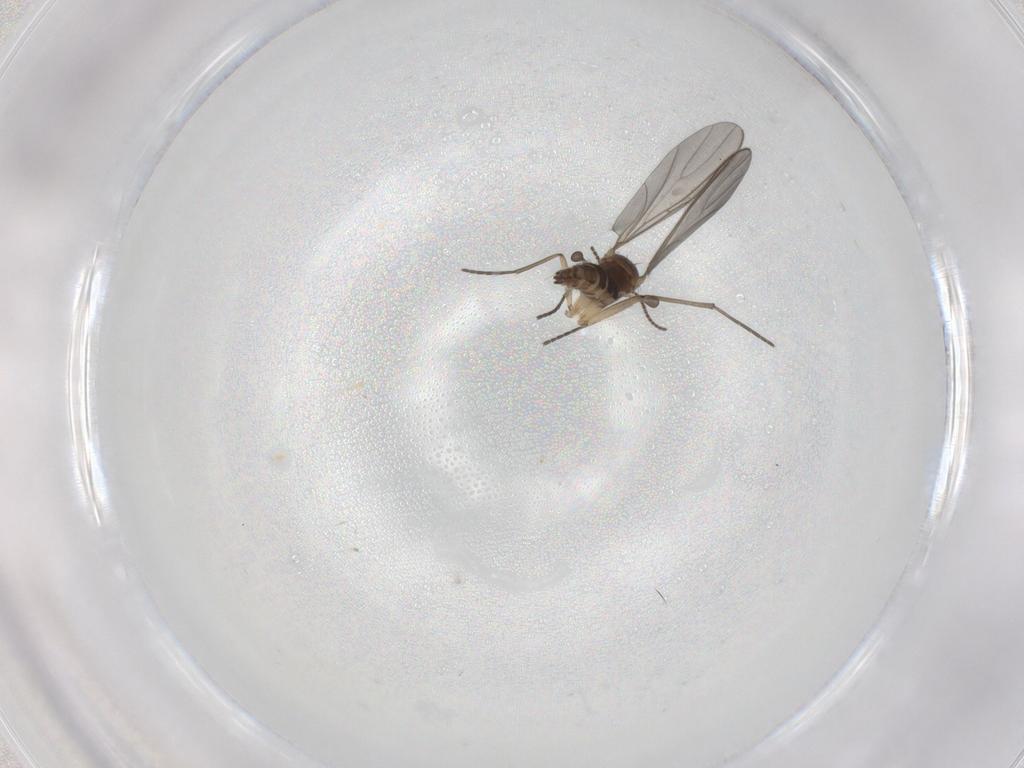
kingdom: Animalia
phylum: Arthropoda
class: Insecta
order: Diptera
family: Sciaridae
